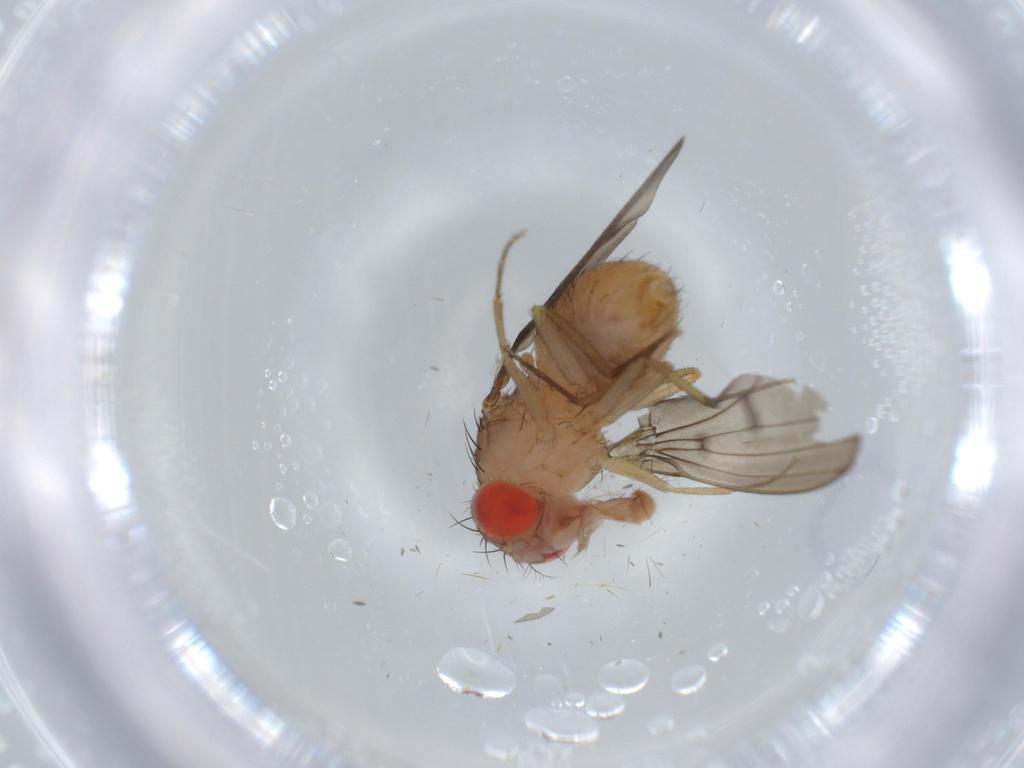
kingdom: Animalia
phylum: Arthropoda
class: Insecta
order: Diptera
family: Drosophilidae
